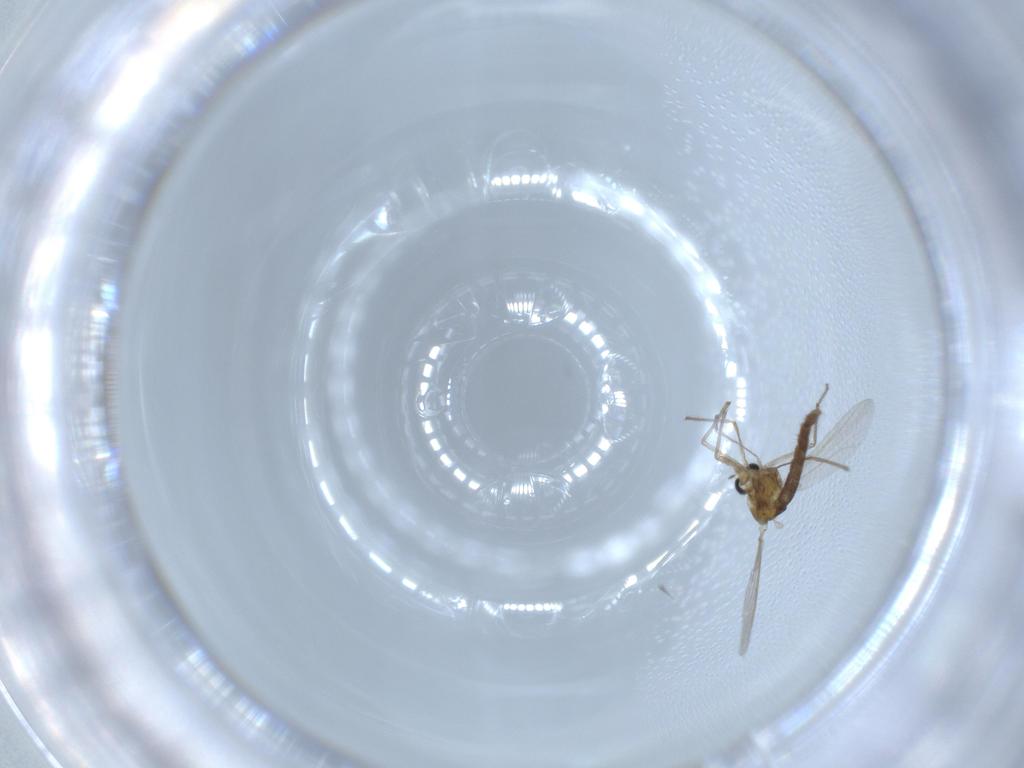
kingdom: Animalia
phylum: Arthropoda
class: Insecta
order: Diptera
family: Chironomidae
